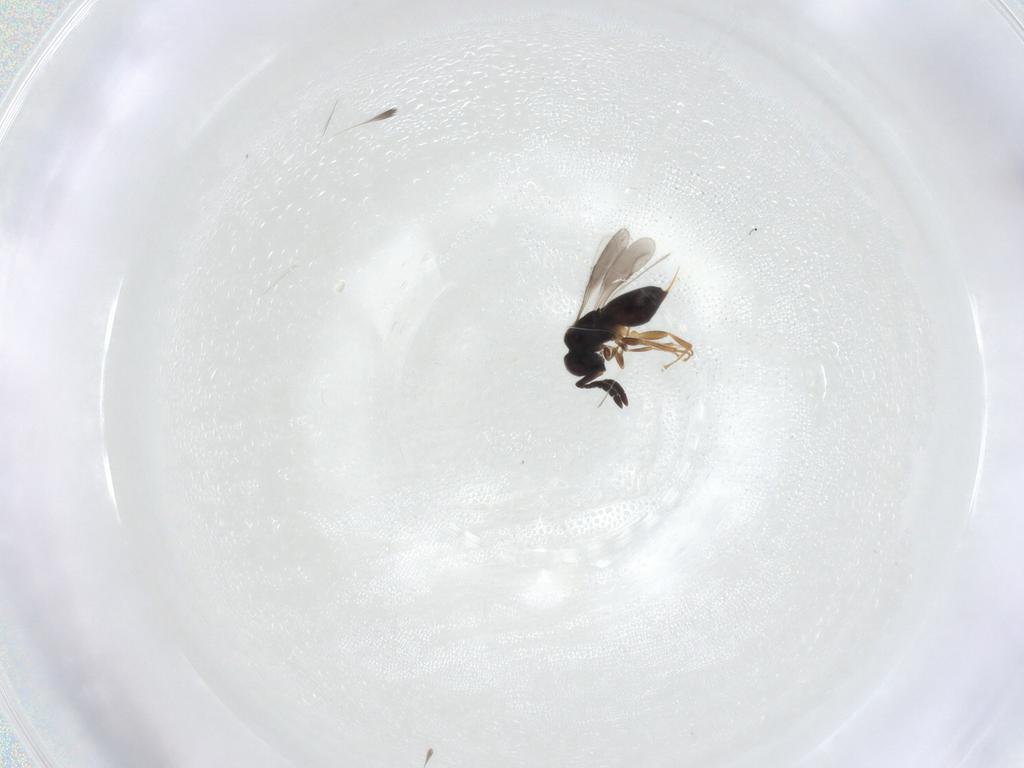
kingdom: Animalia
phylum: Arthropoda
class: Insecta
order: Hymenoptera
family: Ceraphronidae
